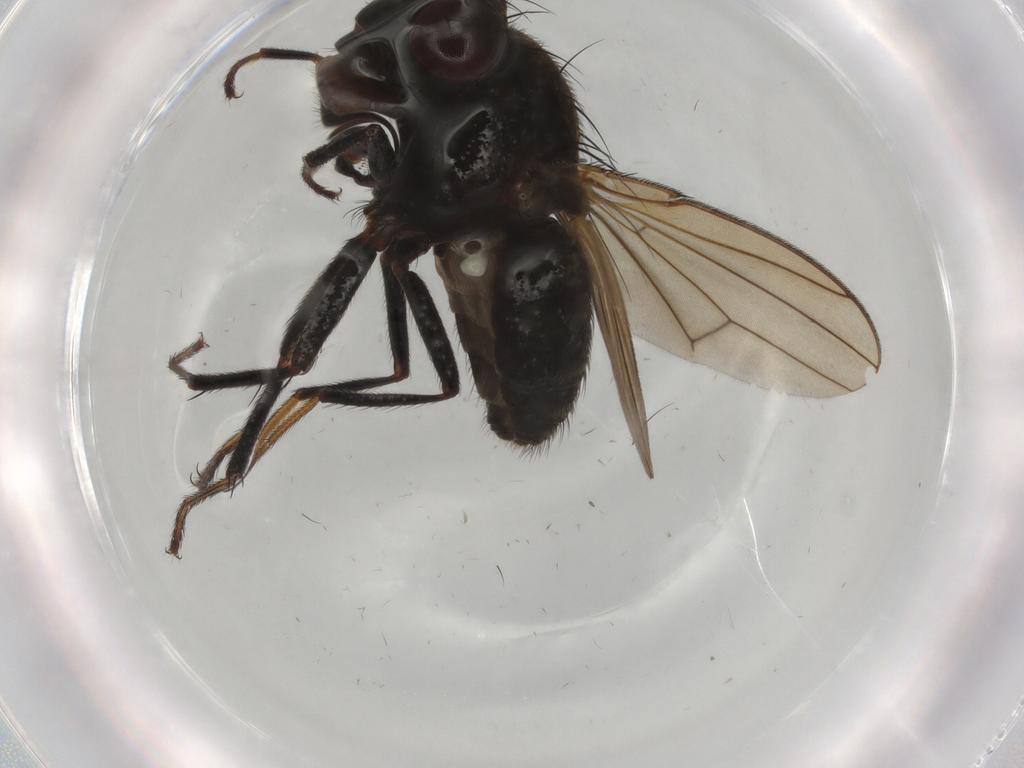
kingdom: Animalia
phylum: Arthropoda
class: Insecta
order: Diptera
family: Ephydridae
